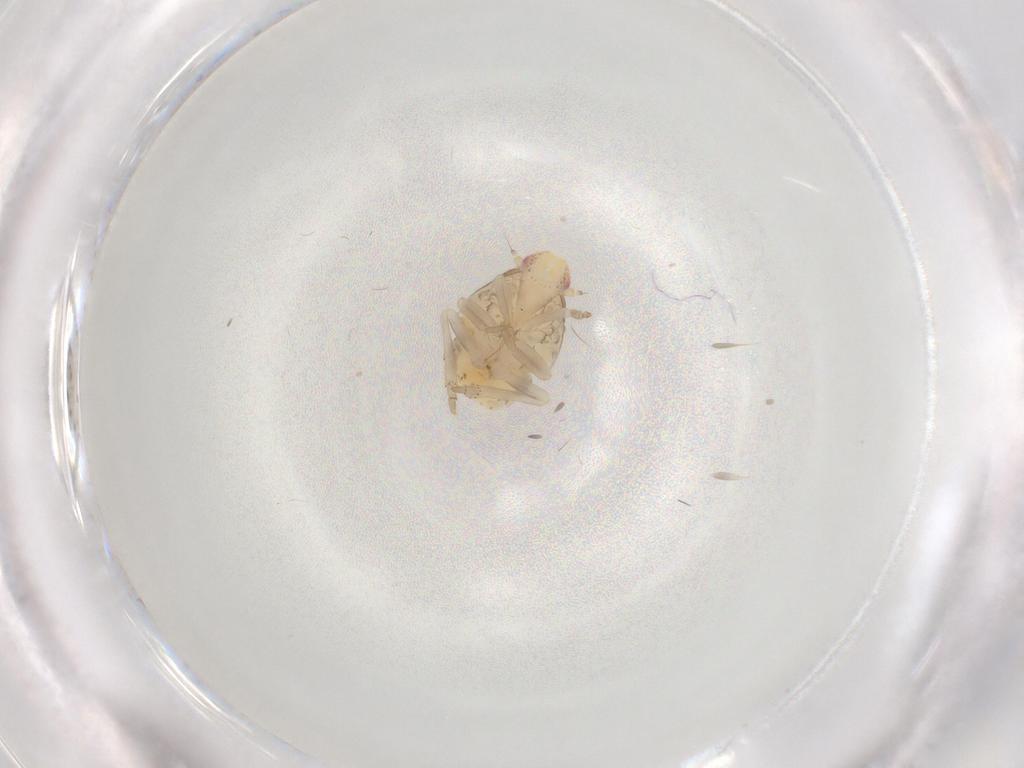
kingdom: Animalia
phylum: Arthropoda
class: Insecta
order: Hemiptera
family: Flatidae
